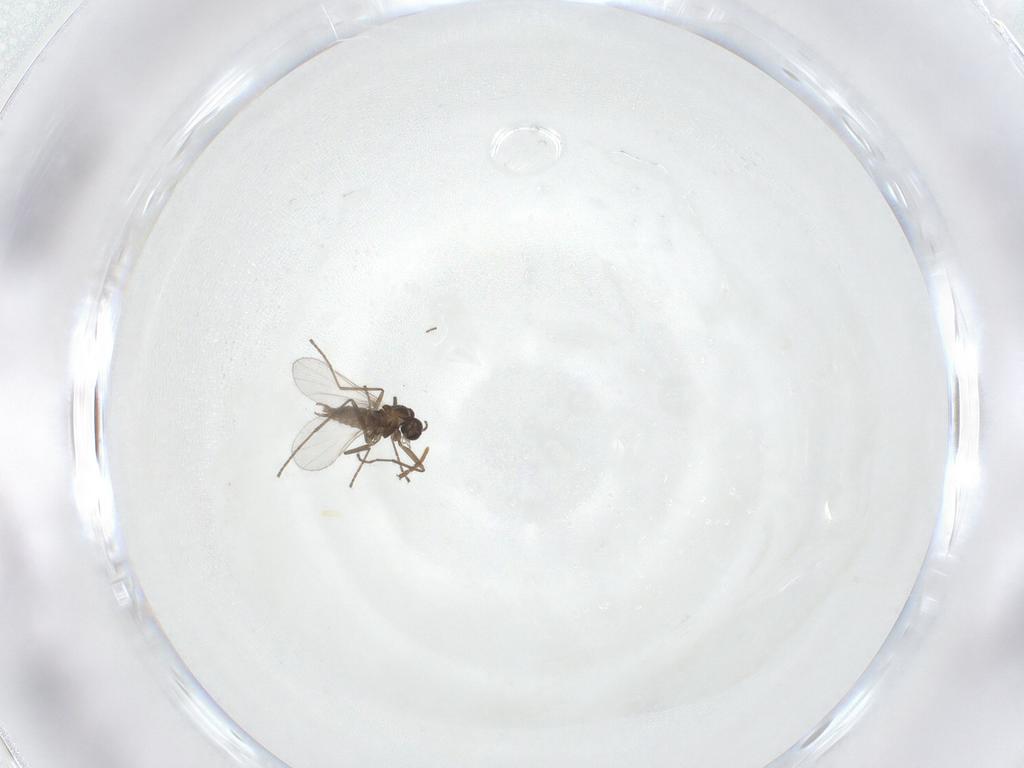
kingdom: Animalia
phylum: Arthropoda
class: Insecta
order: Diptera
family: Cecidomyiidae
